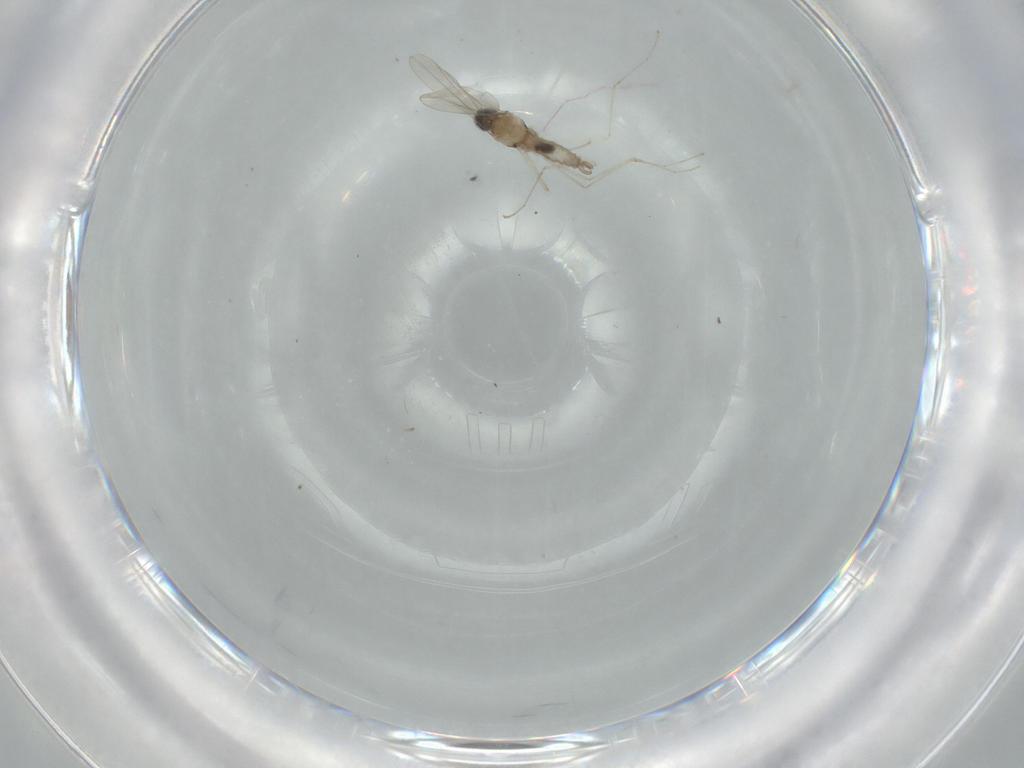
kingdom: Animalia
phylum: Arthropoda
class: Insecta
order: Diptera
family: Cecidomyiidae
